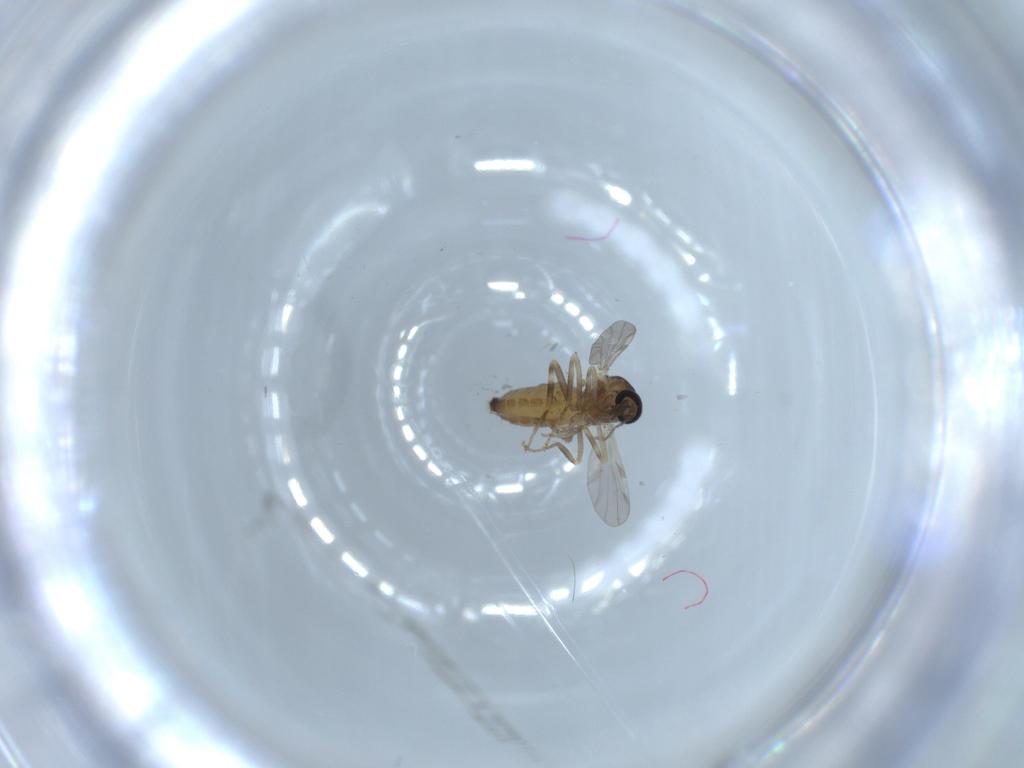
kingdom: Animalia
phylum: Arthropoda
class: Insecta
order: Diptera
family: Ceratopogonidae
